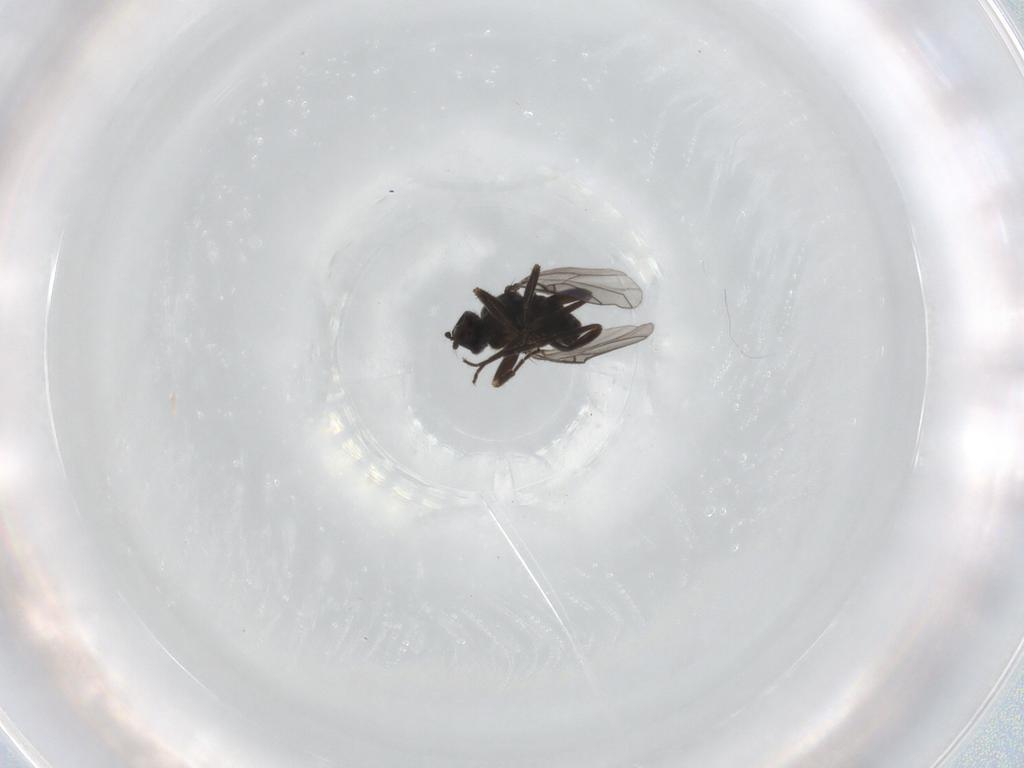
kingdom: Animalia
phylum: Arthropoda
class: Insecta
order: Diptera
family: Hybotidae
